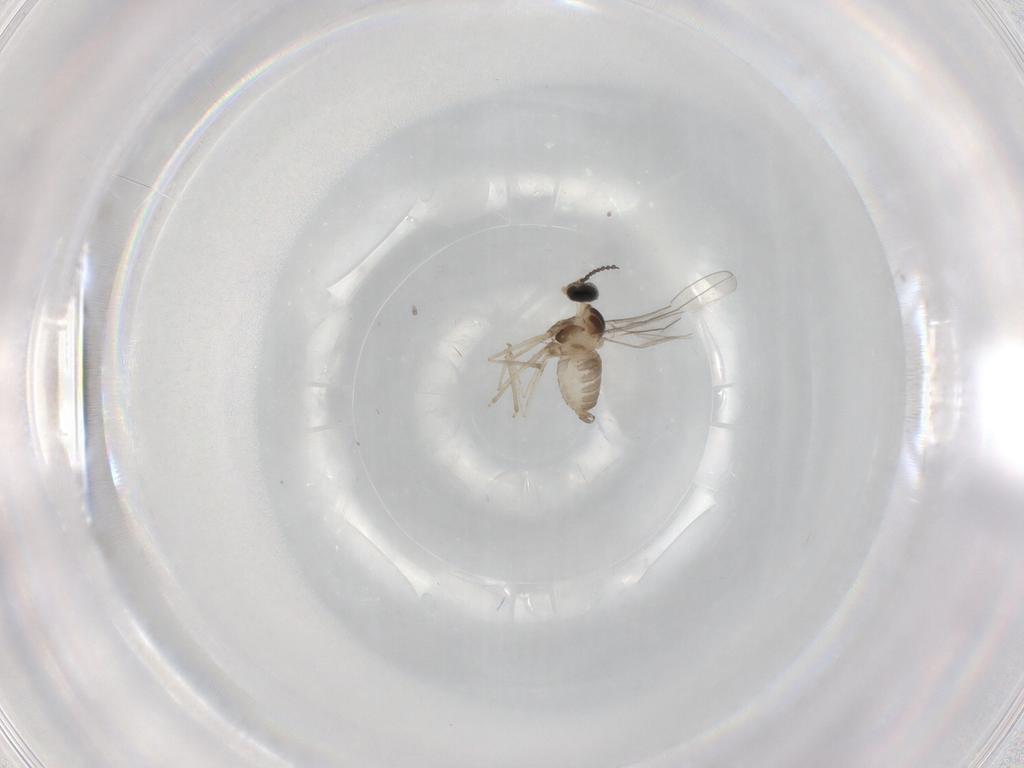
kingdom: Animalia
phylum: Arthropoda
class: Insecta
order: Diptera
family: Cecidomyiidae
